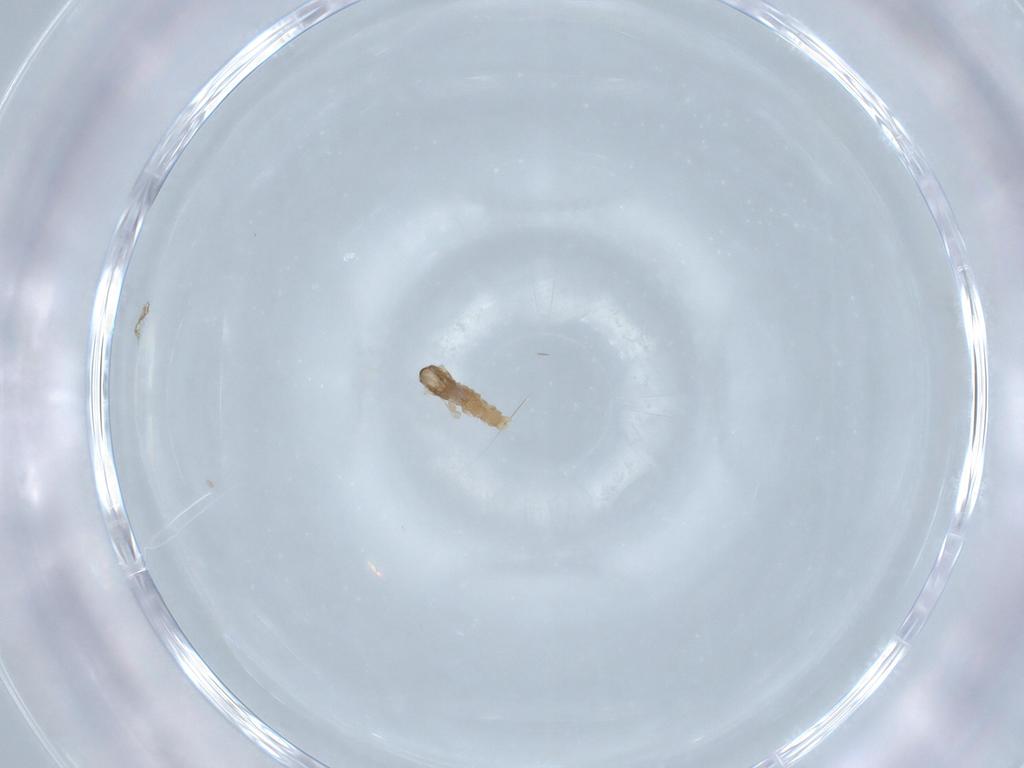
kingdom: Animalia
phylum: Arthropoda
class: Insecta
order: Diptera
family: Cecidomyiidae
